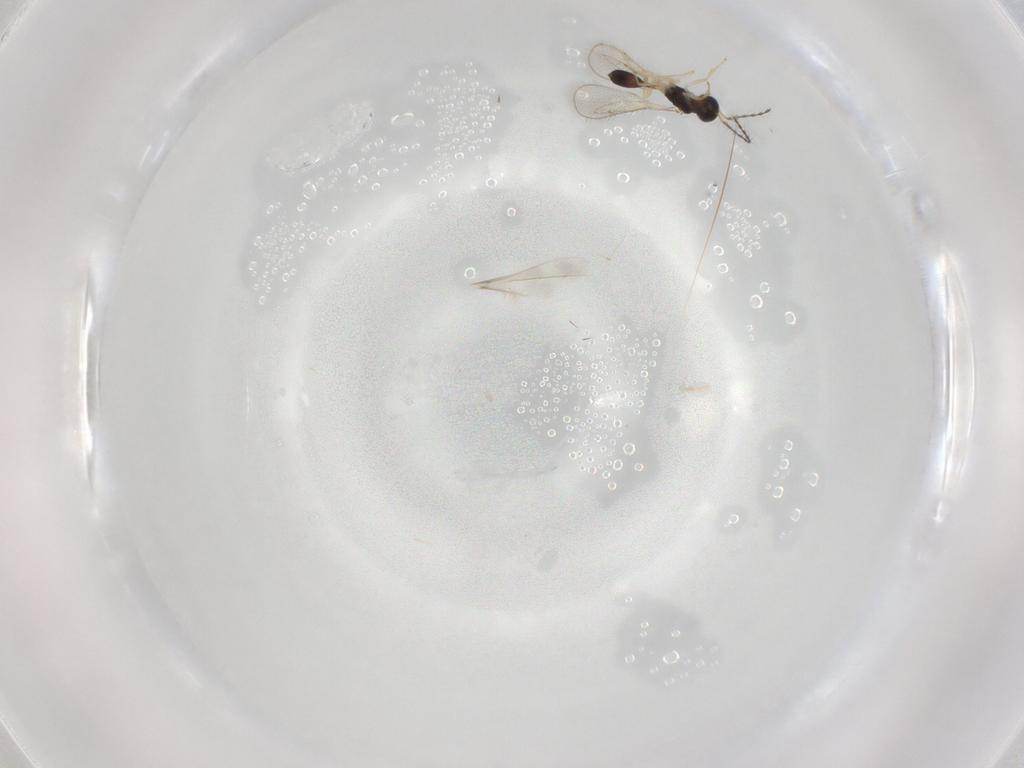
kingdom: Animalia
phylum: Arthropoda
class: Insecta
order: Hymenoptera
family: Diparidae
